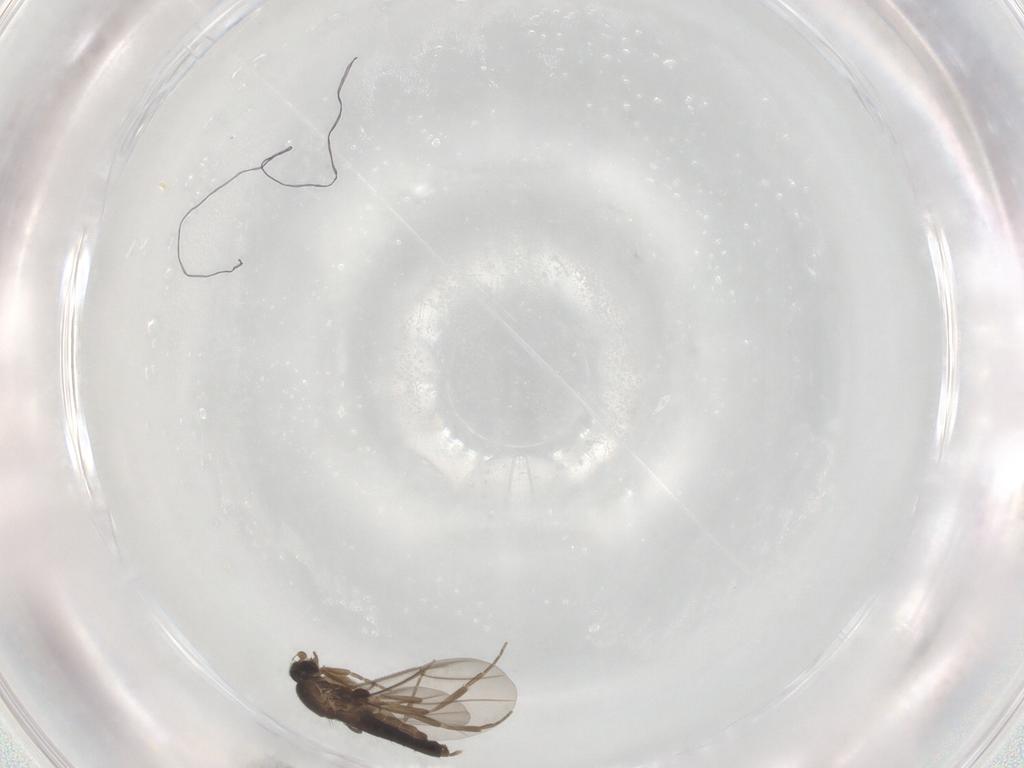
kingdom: Animalia
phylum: Arthropoda
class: Insecta
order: Diptera
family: Phoridae
